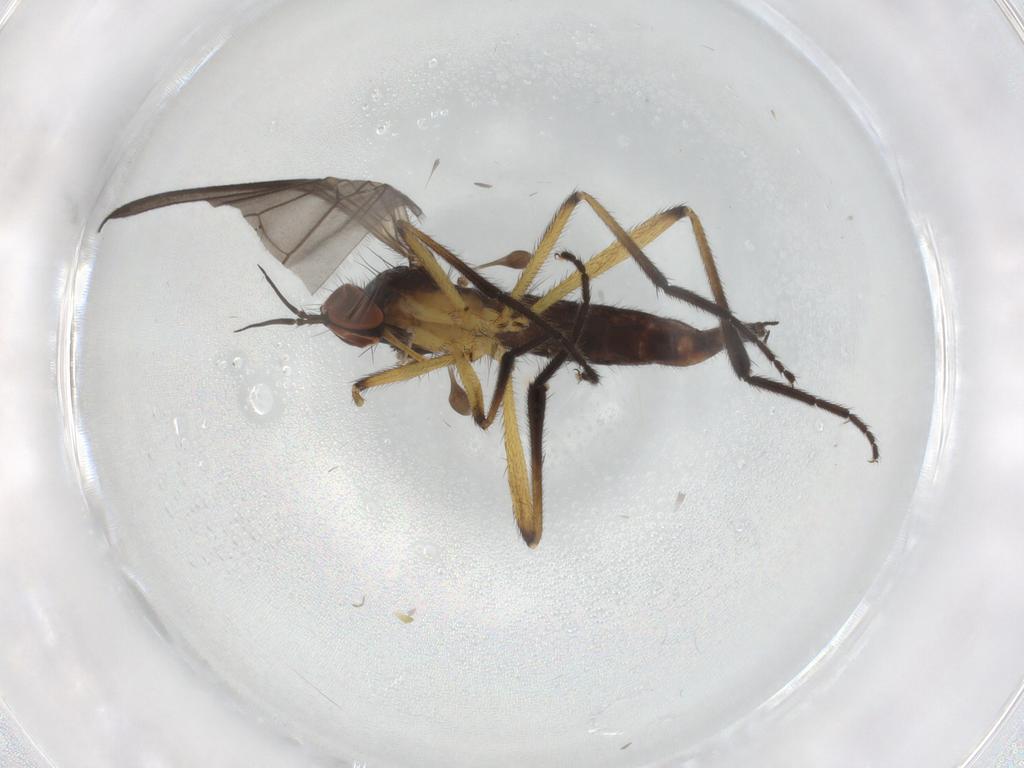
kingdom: Animalia
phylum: Arthropoda
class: Insecta
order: Diptera
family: Empididae
